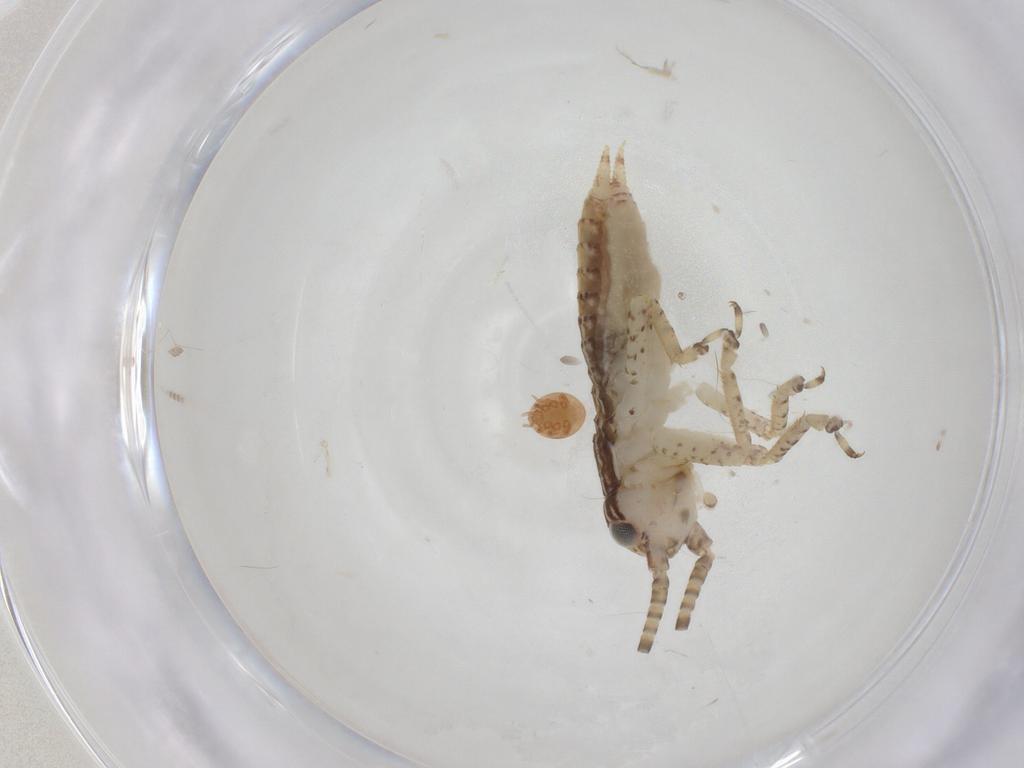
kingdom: Animalia
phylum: Arthropoda
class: Insecta
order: Orthoptera
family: Gryllidae
